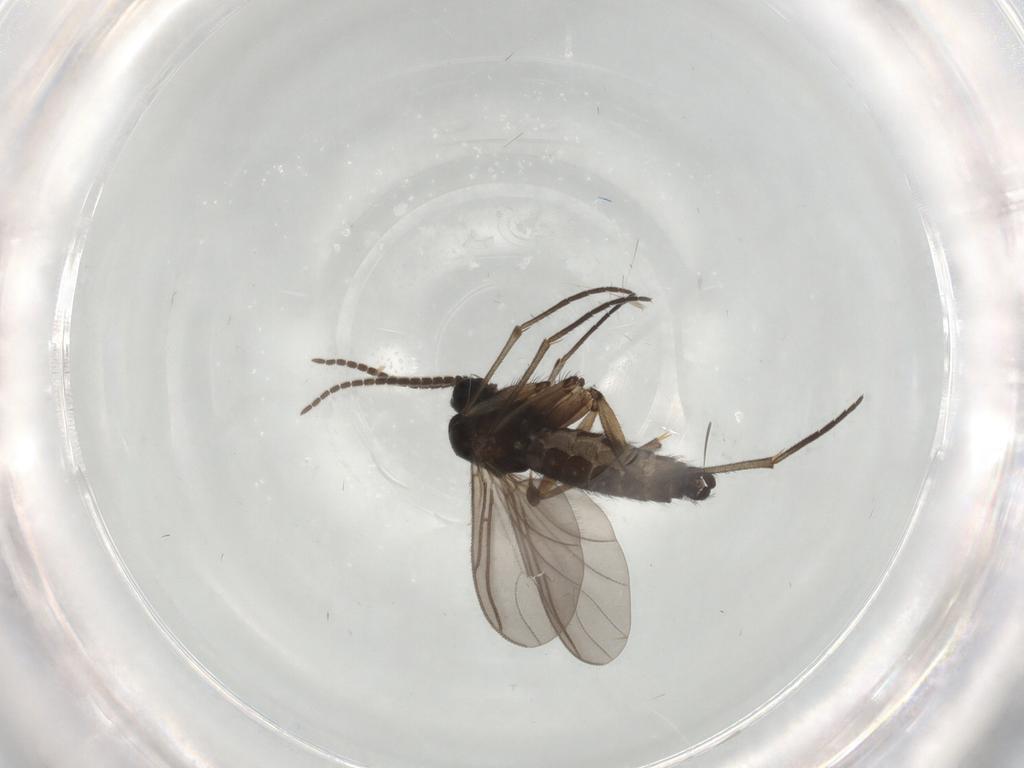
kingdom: Animalia
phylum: Arthropoda
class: Insecta
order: Diptera
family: Sciaridae
